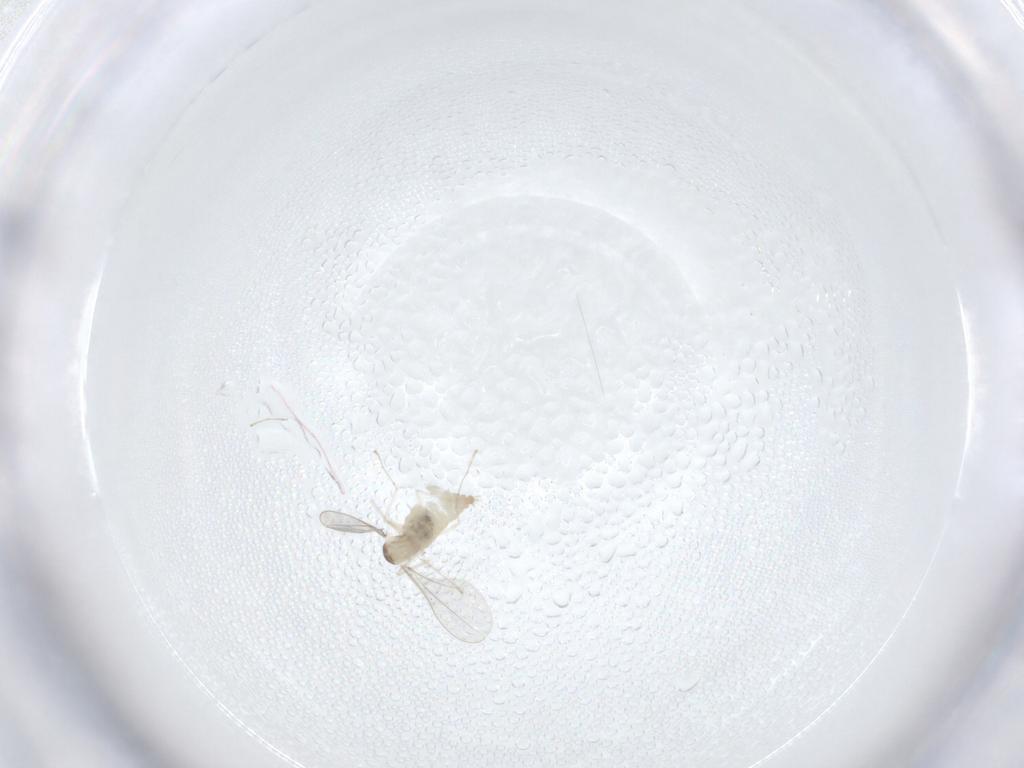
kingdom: Animalia
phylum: Arthropoda
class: Insecta
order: Diptera
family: Cecidomyiidae
